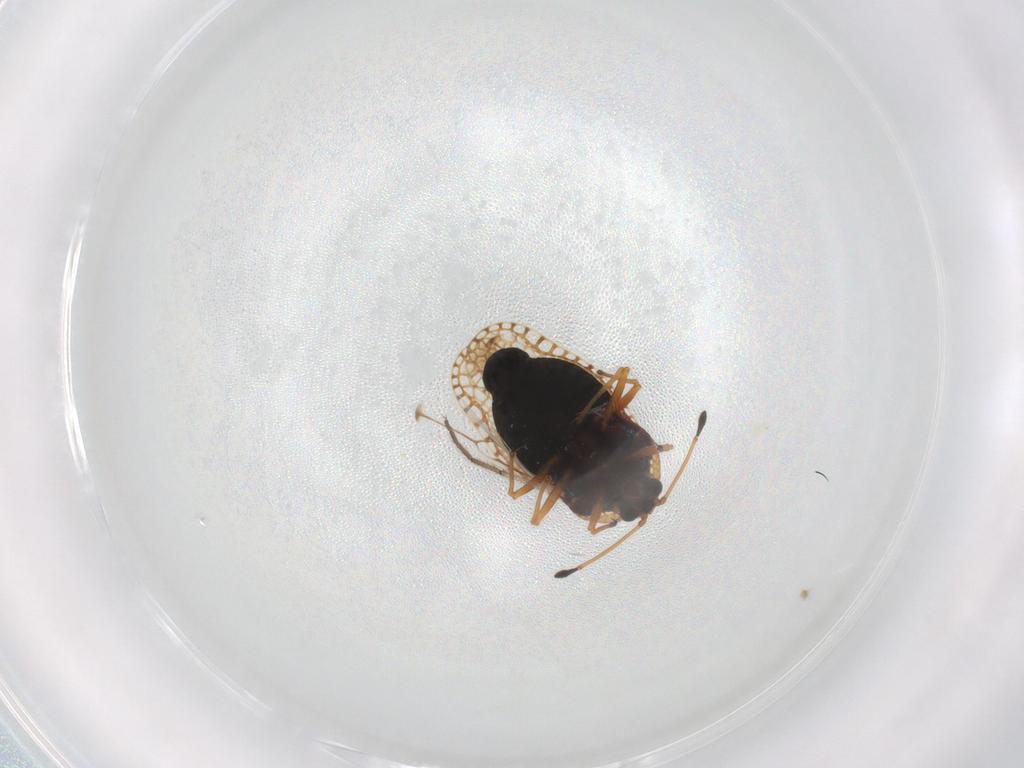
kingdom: Animalia
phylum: Arthropoda
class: Insecta
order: Hemiptera
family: Tingidae
